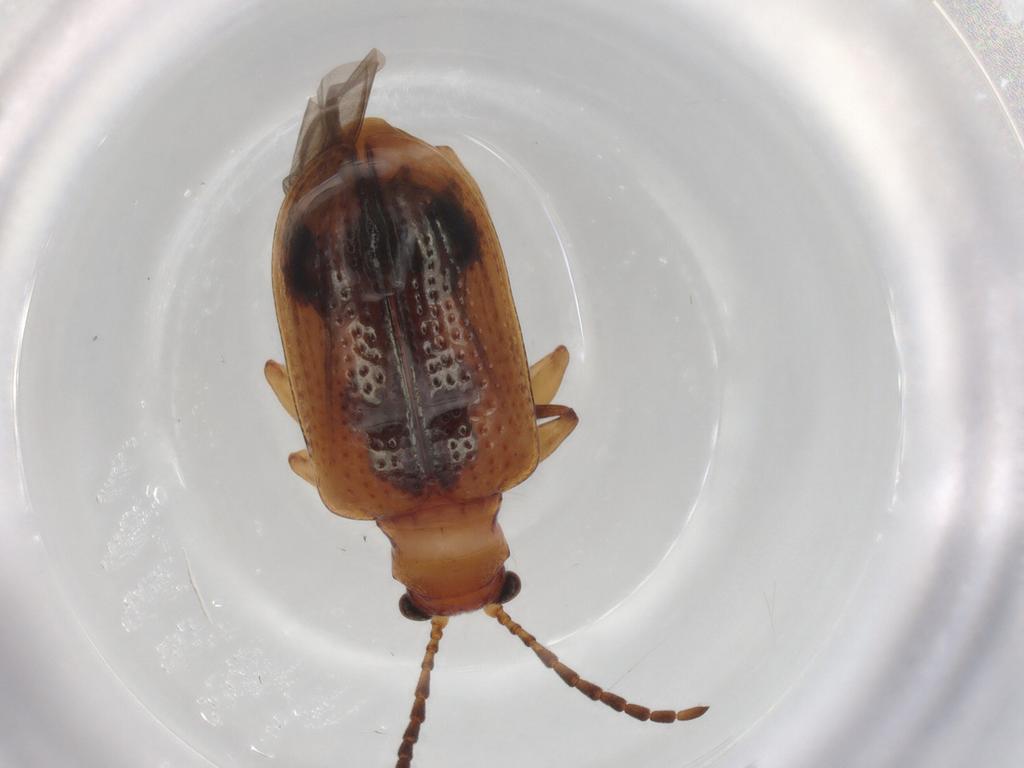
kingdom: Animalia
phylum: Arthropoda
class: Insecta
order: Coleoptera
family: Chrysomelidae
